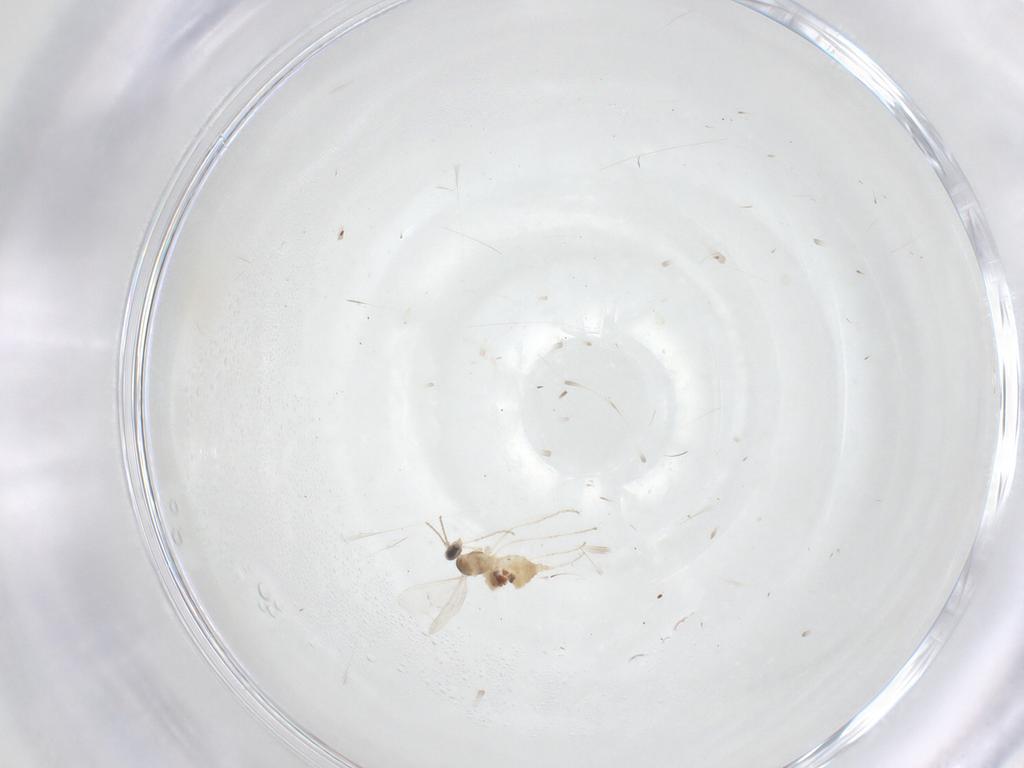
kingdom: Animalia
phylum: Arthropoda
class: Insecta
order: Diptera
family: Cecidomyiidae
